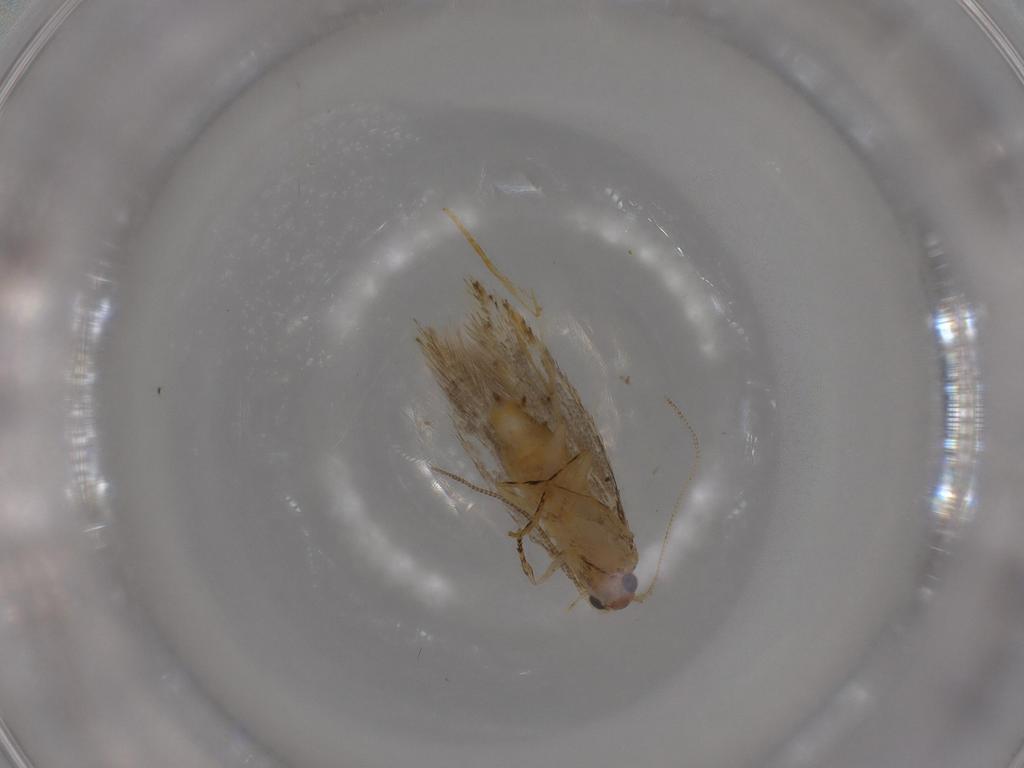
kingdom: Animalia
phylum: Arthropoda
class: Insecta
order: Lepidoptera
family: Tineidae
